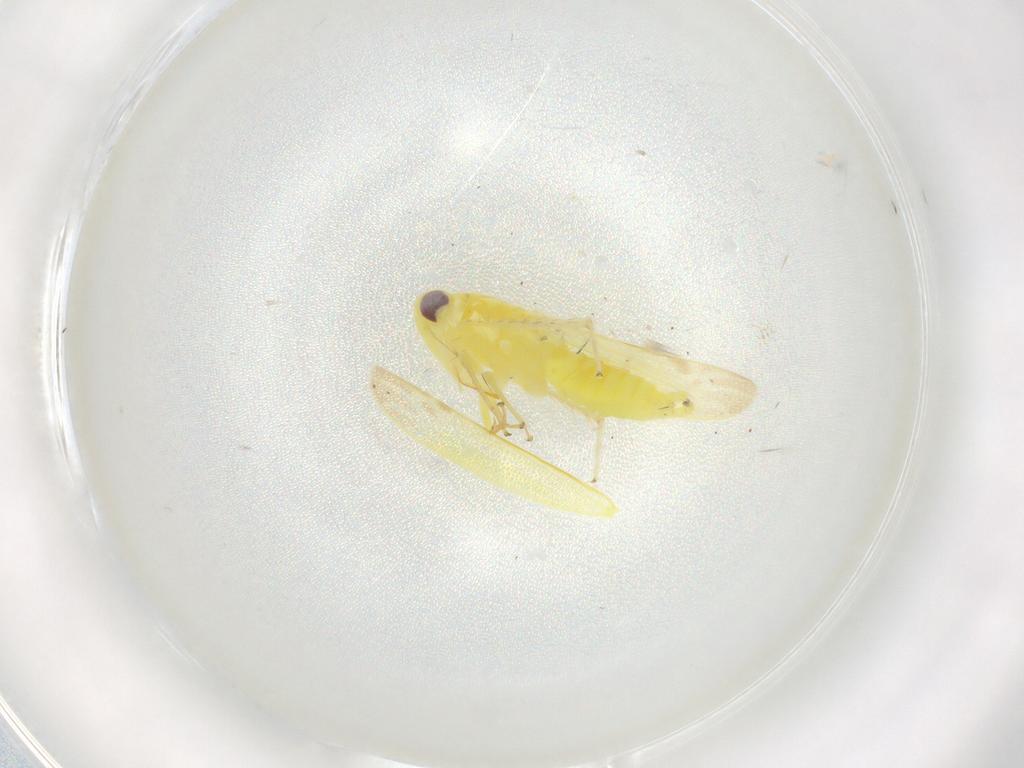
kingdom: Animalia
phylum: Arthropoda
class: Insecta
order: Hemiptera
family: Cicadellidae
